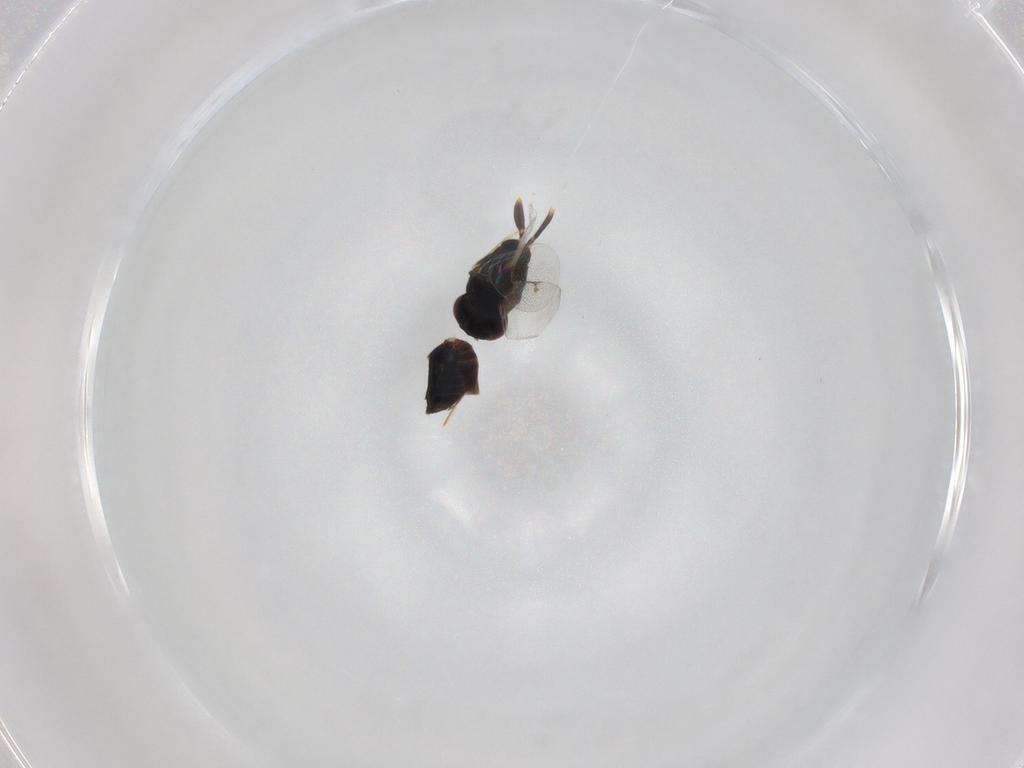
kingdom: Animalia
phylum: Arthropoda
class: Insecta
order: Hymenoptera
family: Eulophidae
